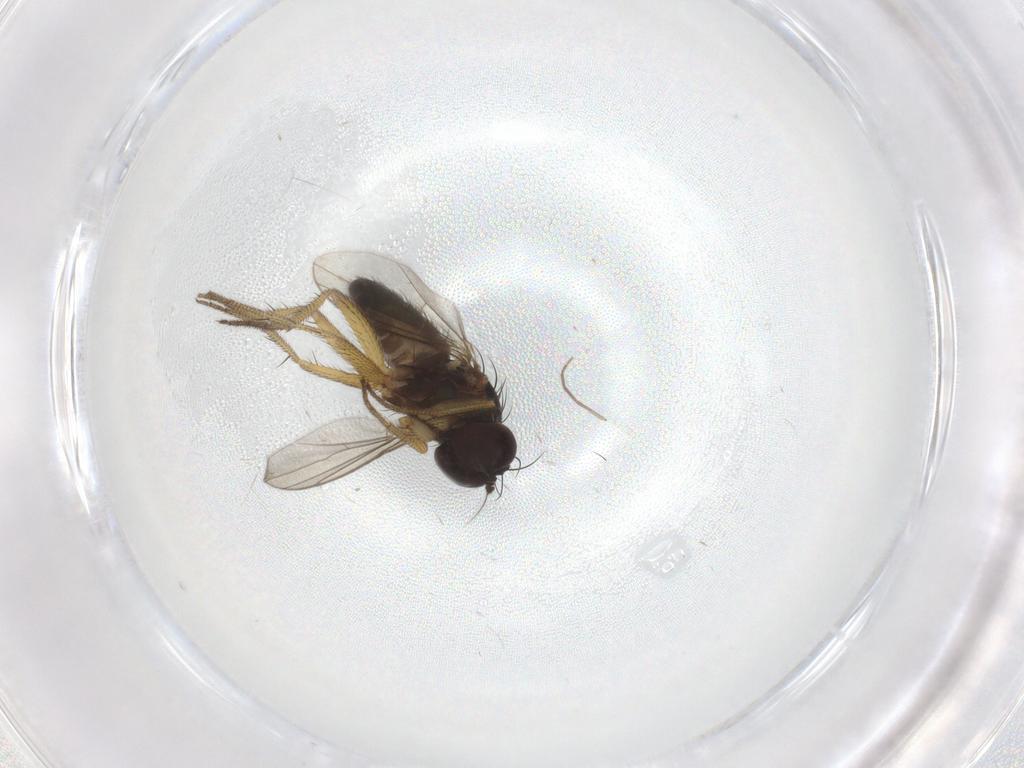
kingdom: Animalia
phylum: Arthropoda
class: Insecta
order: Diptera
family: Dolichopodidae
